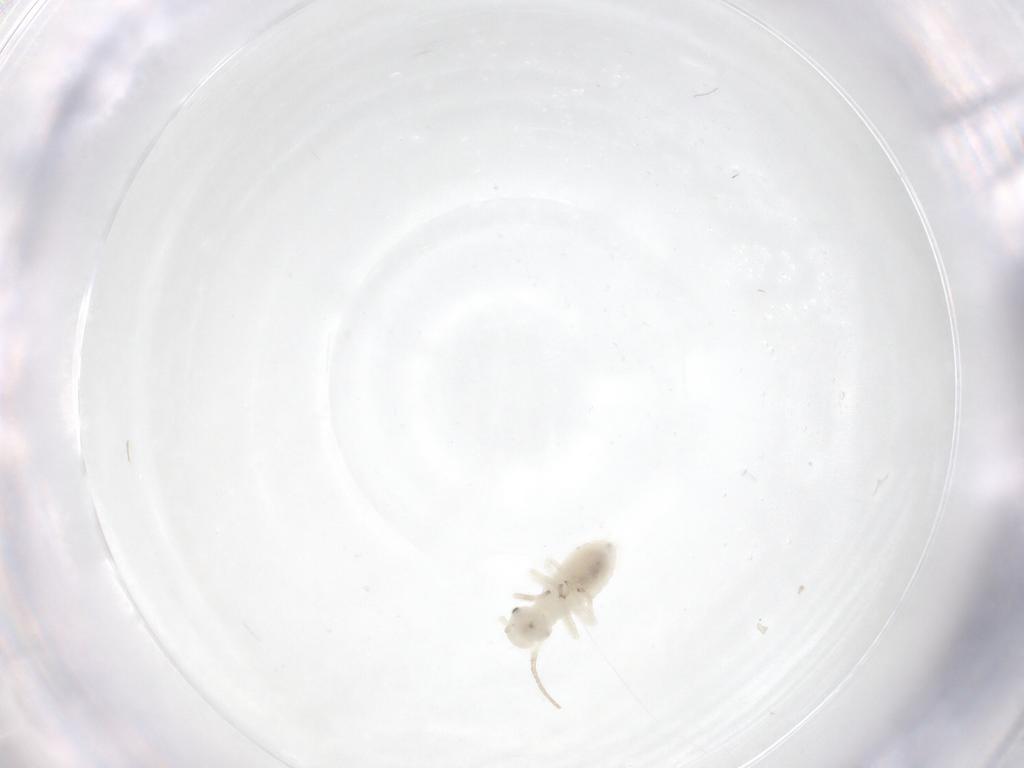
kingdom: Animalia
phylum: Arthropoda
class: Insecta
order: Psocodea
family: Caeciliusidae
